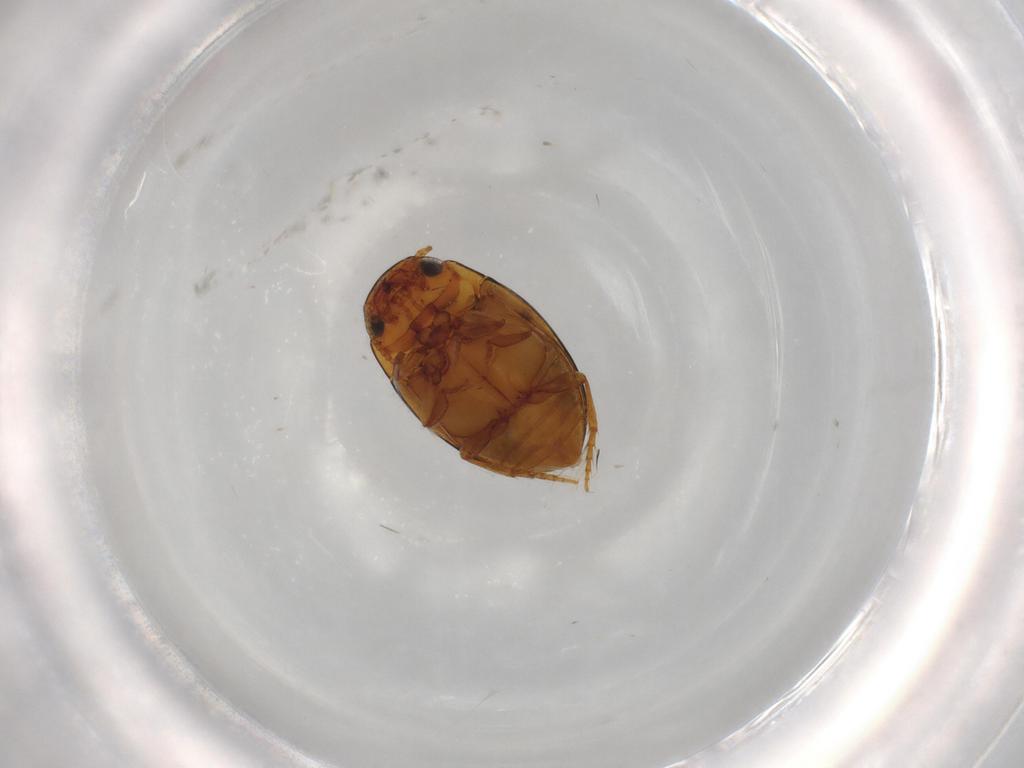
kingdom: Animalia
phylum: Arthropoda
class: Insecta
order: Coleoptera
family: Dytiscidae
